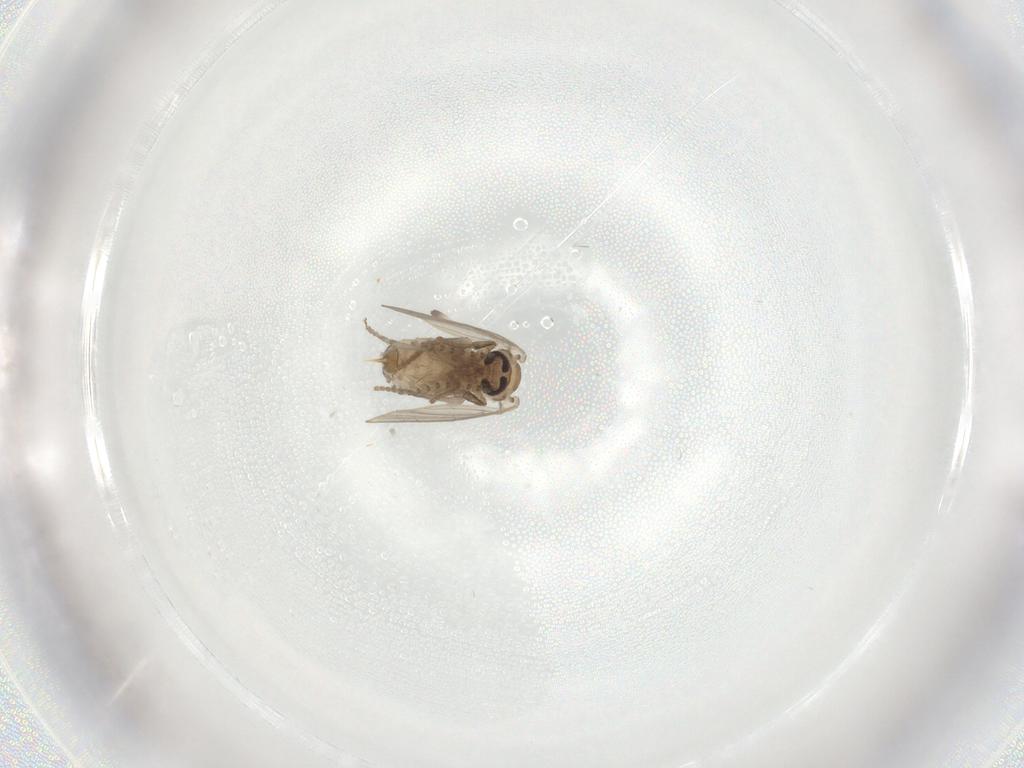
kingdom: Animalia
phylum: Arthropoda
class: Insecta
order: Diptera
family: Psychodidae
